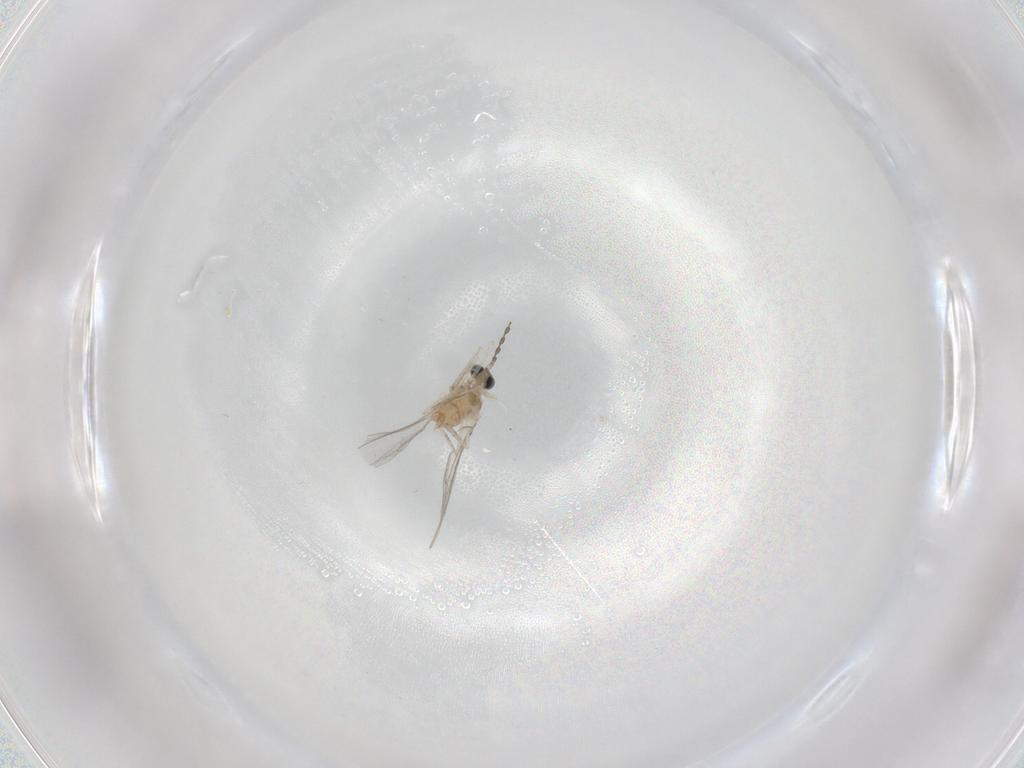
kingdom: Animalia
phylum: Arthropoda
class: Insecta
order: Diptera
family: Cecidomyiidae
